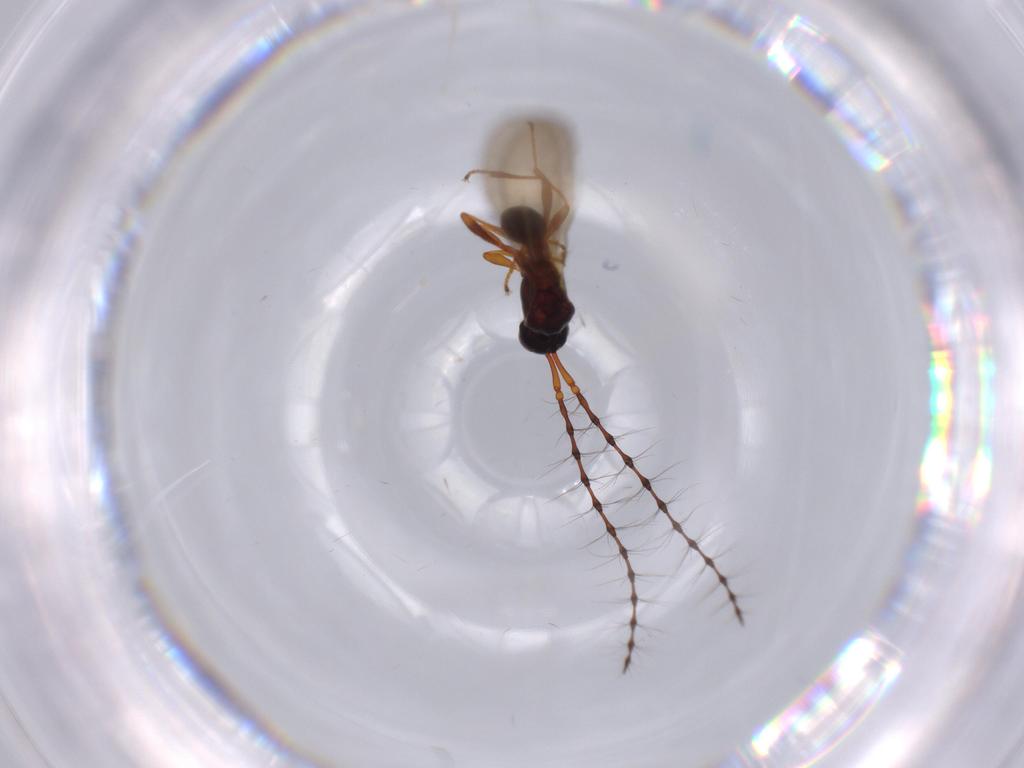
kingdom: Animalia
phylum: Arthropoda
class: Insecta
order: Hymenoptera
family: Diapriidae
